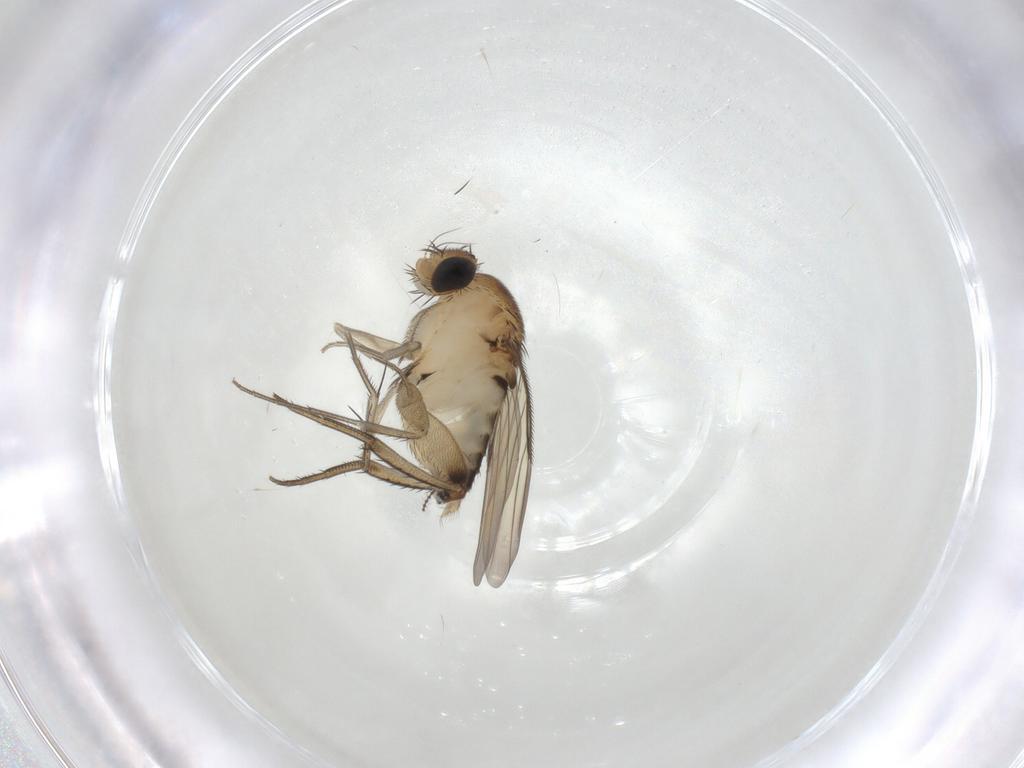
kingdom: Animalia
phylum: Arthropoda
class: Insecta
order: Diptera
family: Phoridae
